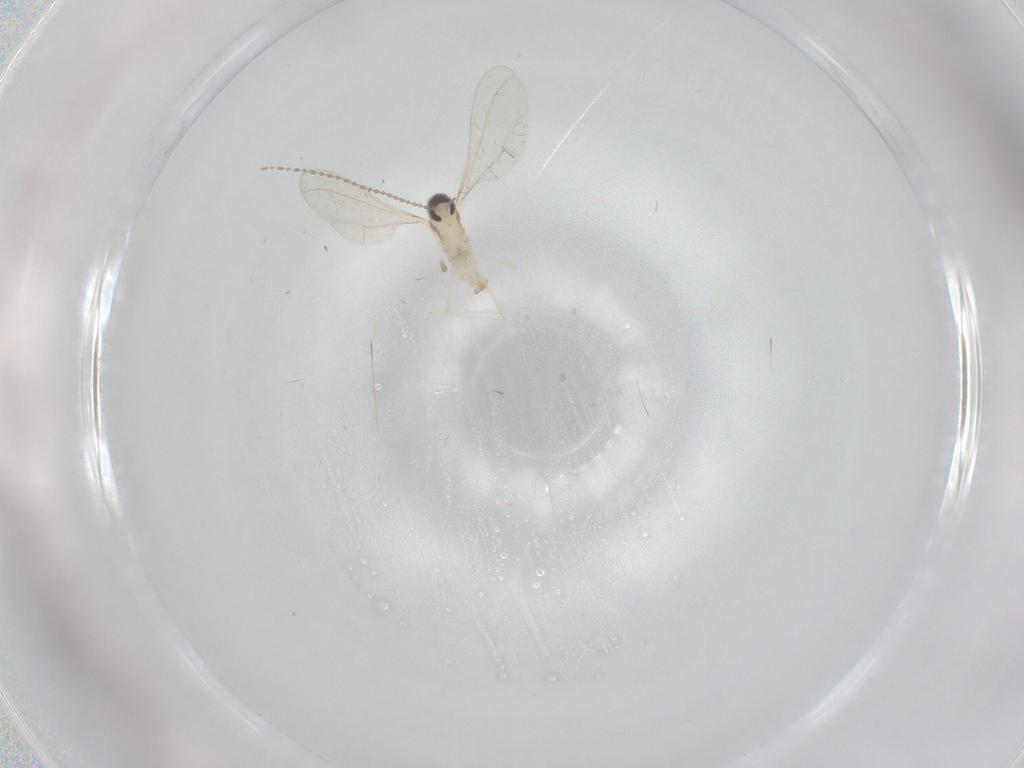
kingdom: Animalia
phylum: Arthropoda
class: Insecta
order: Diptera
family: Cecidomyiidae
